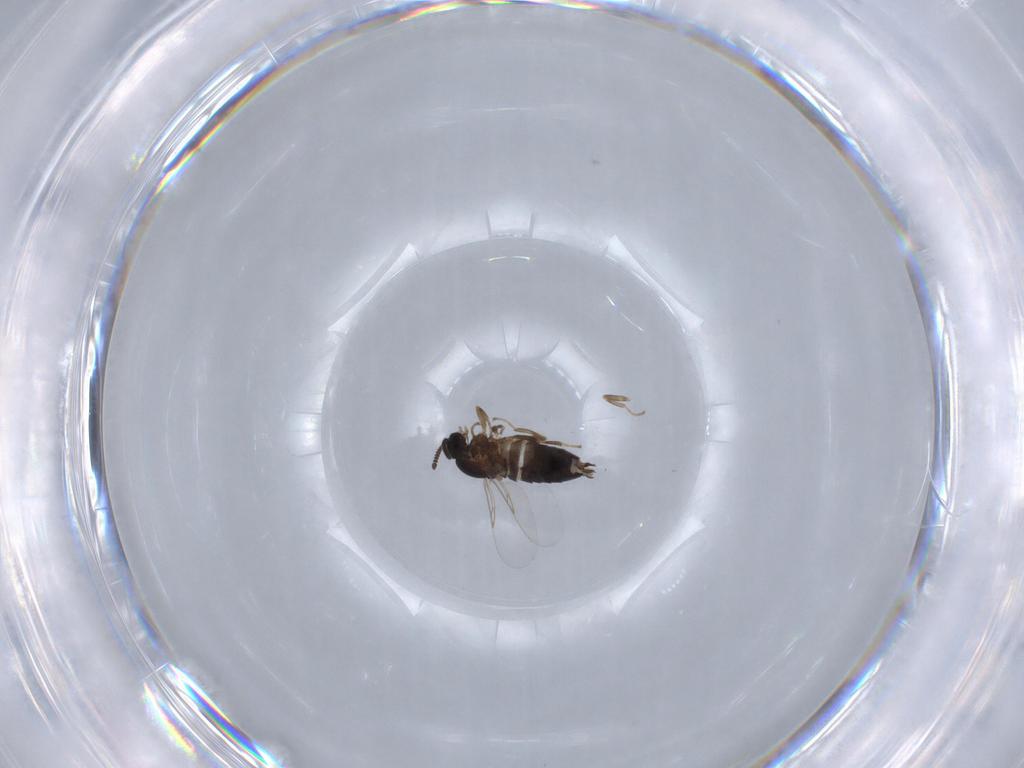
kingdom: Animalia
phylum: Arthropoda
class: Insecta
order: Diptera
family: Scatopsidae
